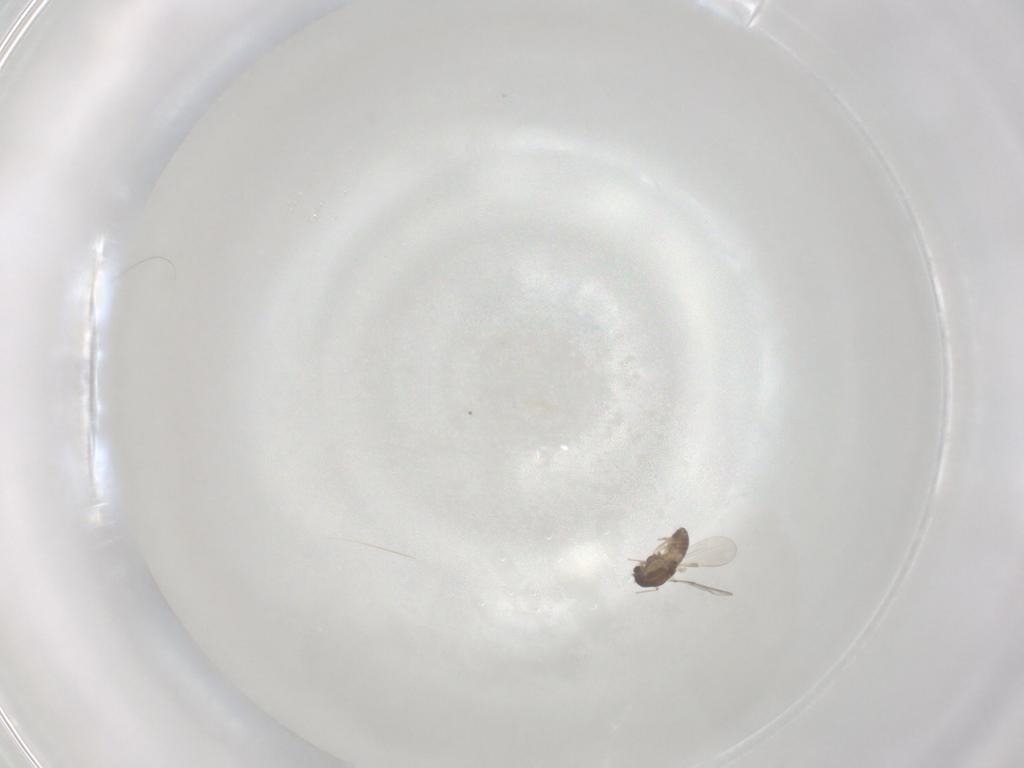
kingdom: Animalia
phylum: Arthropoda
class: Insecta
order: Diptera
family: Chironomidae
